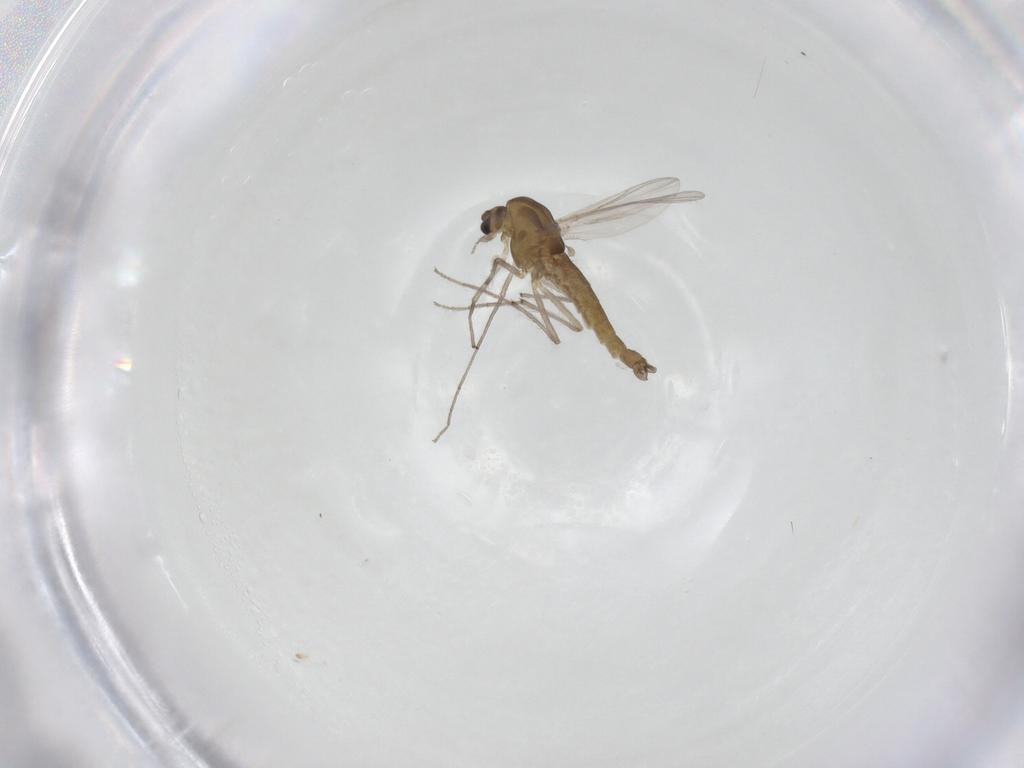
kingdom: Animalia
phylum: Arthropoda
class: Insecta
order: Diptera
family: Chironomidae
